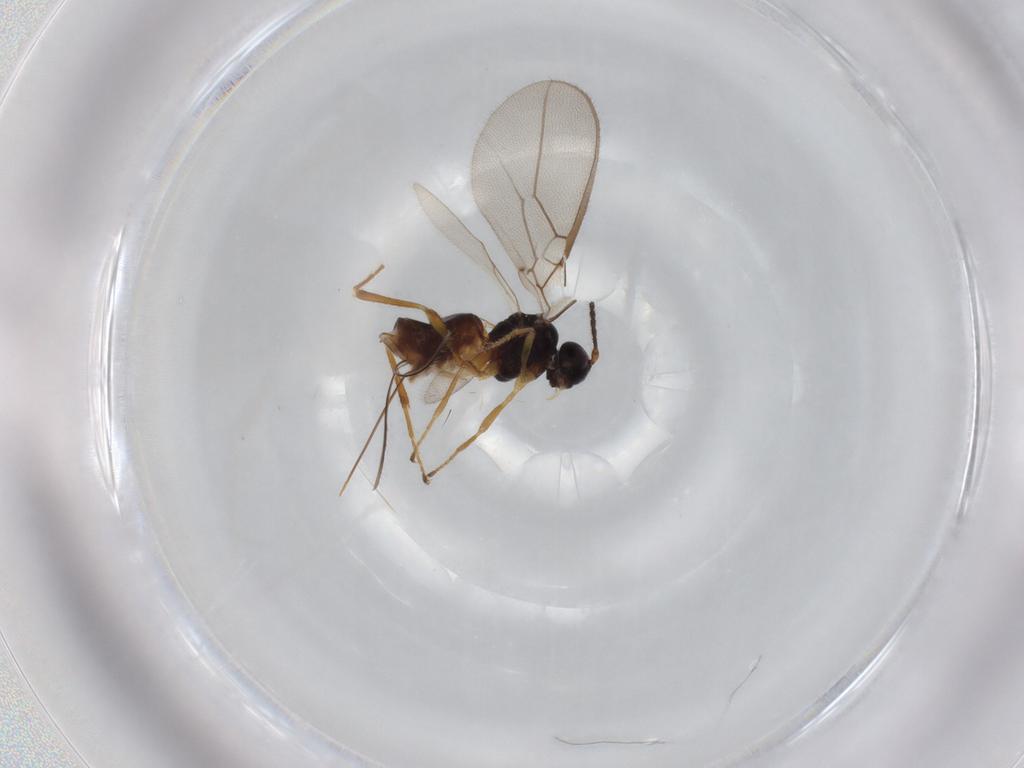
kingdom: Animalia
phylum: Arthropoda
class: Insecta
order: Hymenoptera
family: Braconidae
